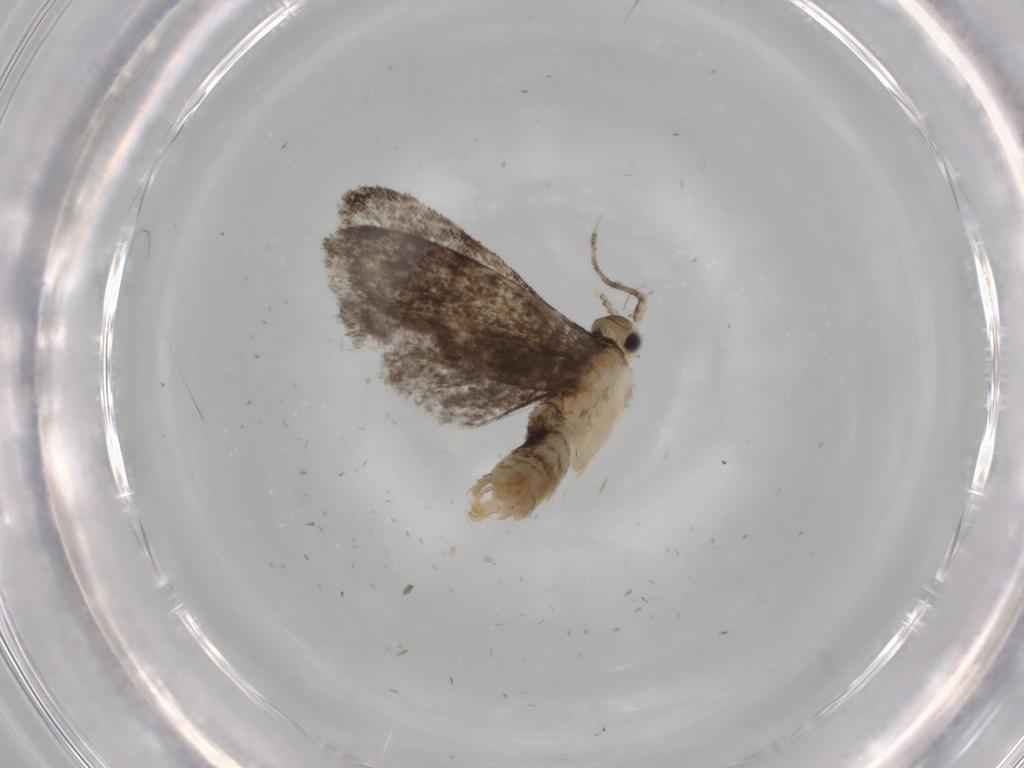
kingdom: Animalia
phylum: Arthropoda
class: Insecta
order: Lepidoptera
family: Tineidae
